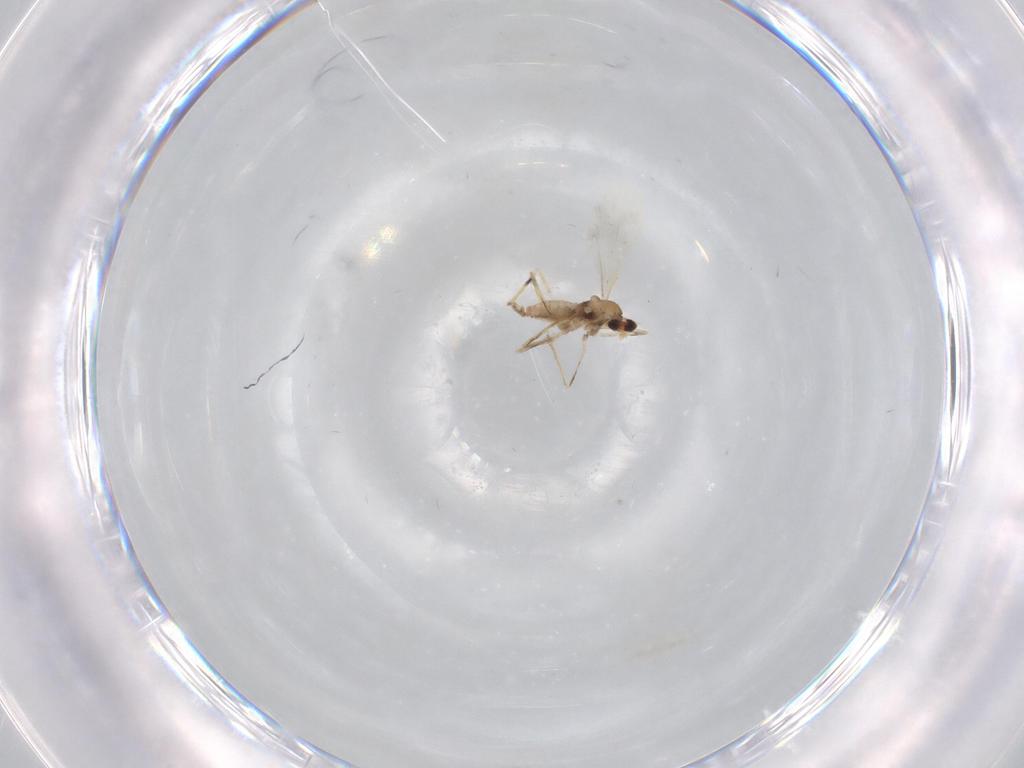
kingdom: Animalia
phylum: Arthropoda
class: Insecta
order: Diptera
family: Cecidomyiidae
